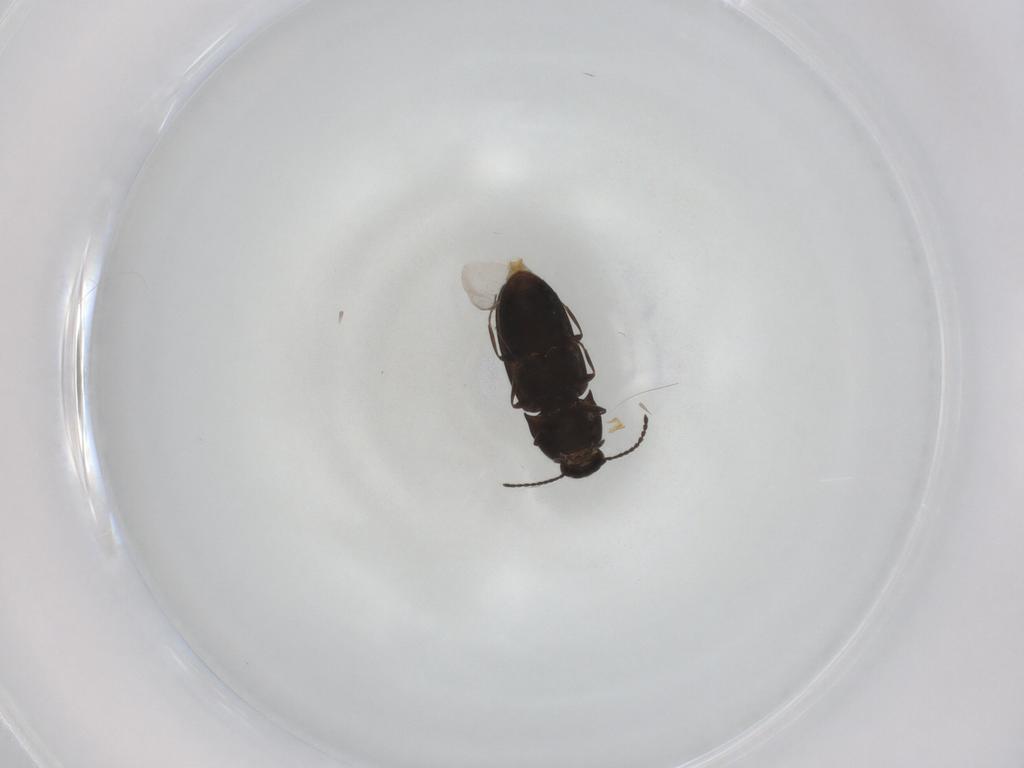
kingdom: Animalia
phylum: Arthropoda
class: Insecta
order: Coleoptera
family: Elateridae
